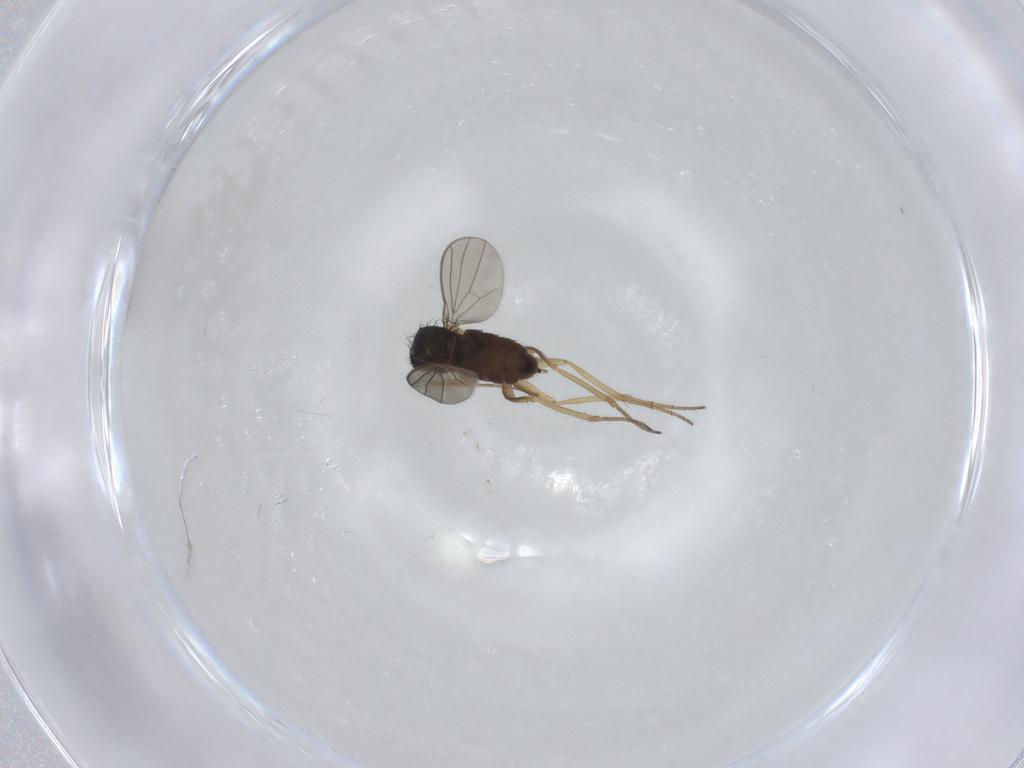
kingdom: Animalia
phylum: Arthropoda
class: Insecta
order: Diptera
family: Dolichopodidae
